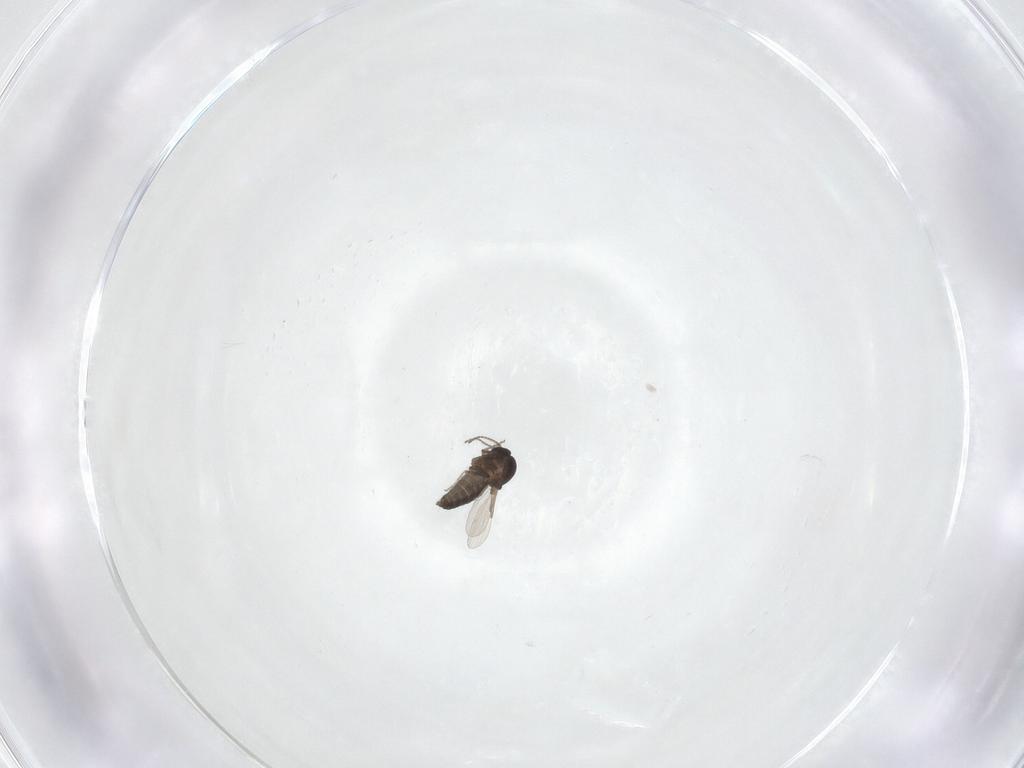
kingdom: Animalia
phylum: Arthropoda
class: Insecta
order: Diptera
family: Ceratopogonidae
